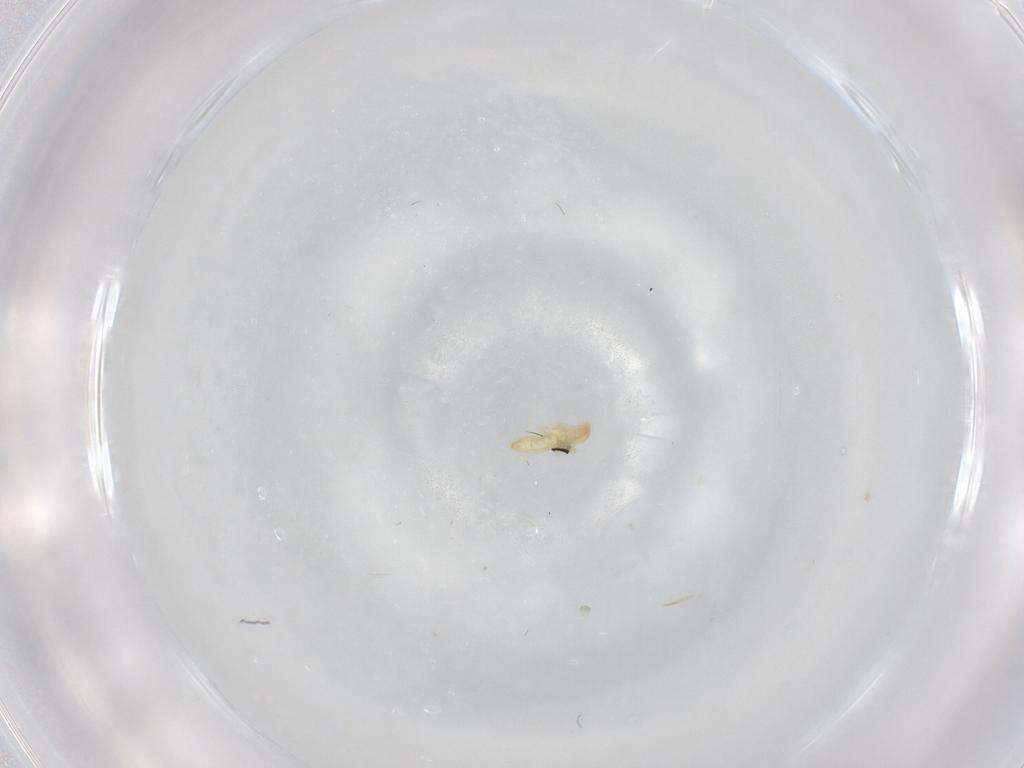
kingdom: Animalia
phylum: Arthropoda
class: Insecta
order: Diptera
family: Cecidomyiidae
